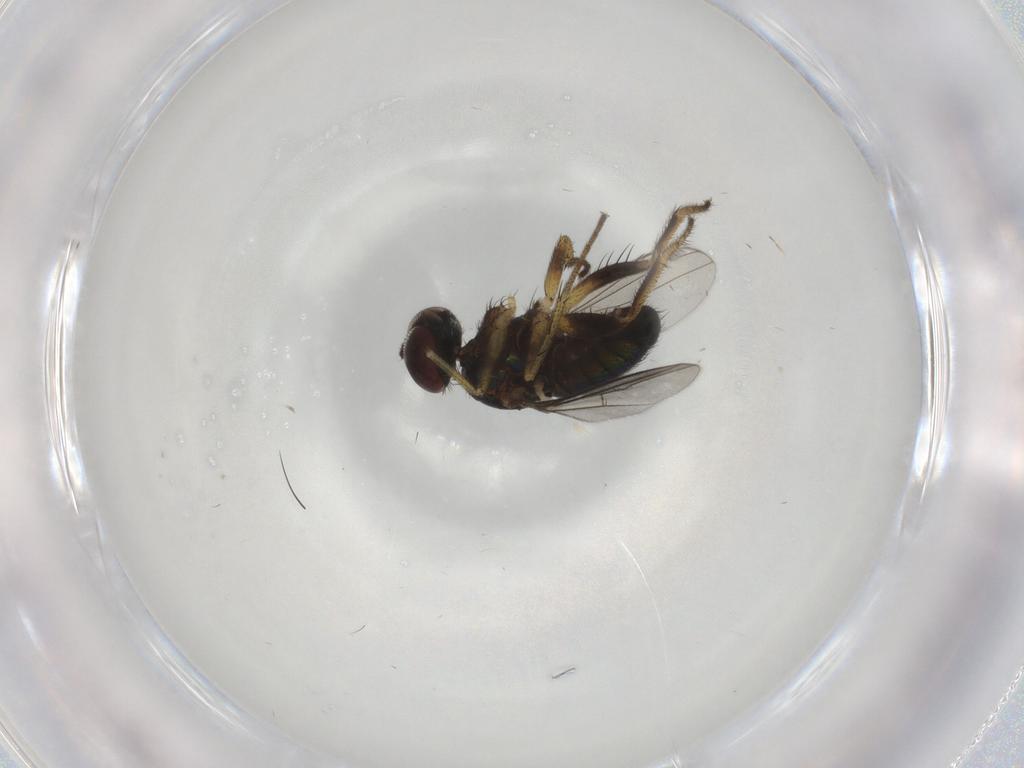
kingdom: Animalia
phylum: Arthropoda
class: Insecta
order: Diptera
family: Dolichopodidae
